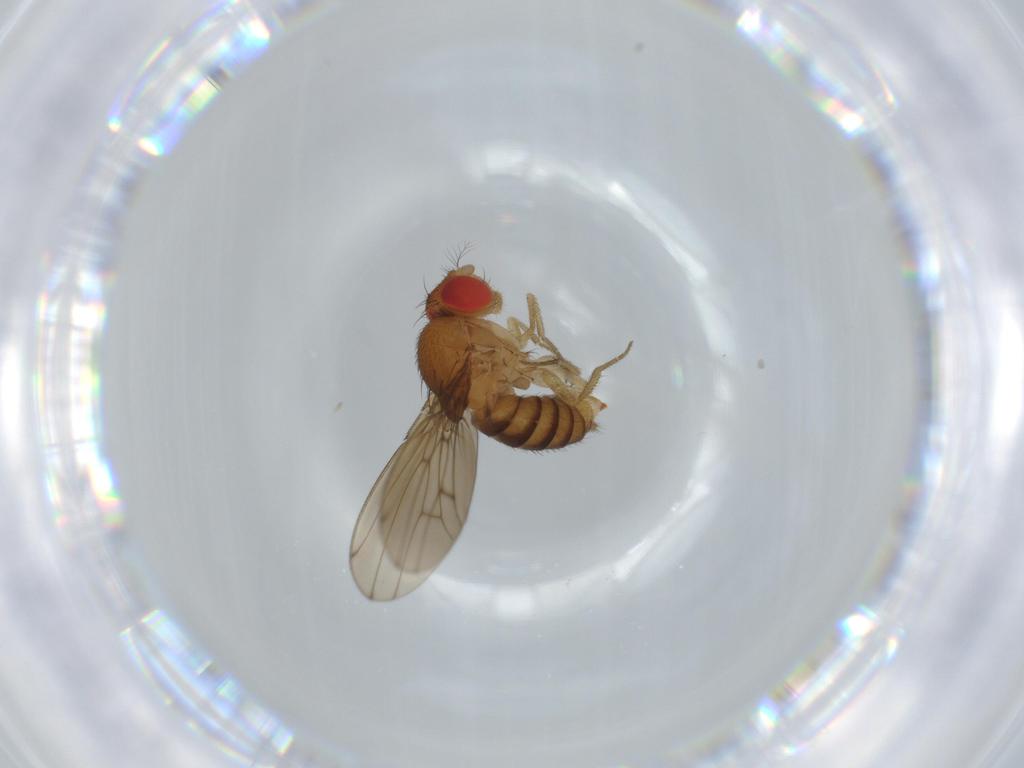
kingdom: Animalia
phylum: Arthropoda
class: Insecta
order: Diptera
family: Drosophilidae
